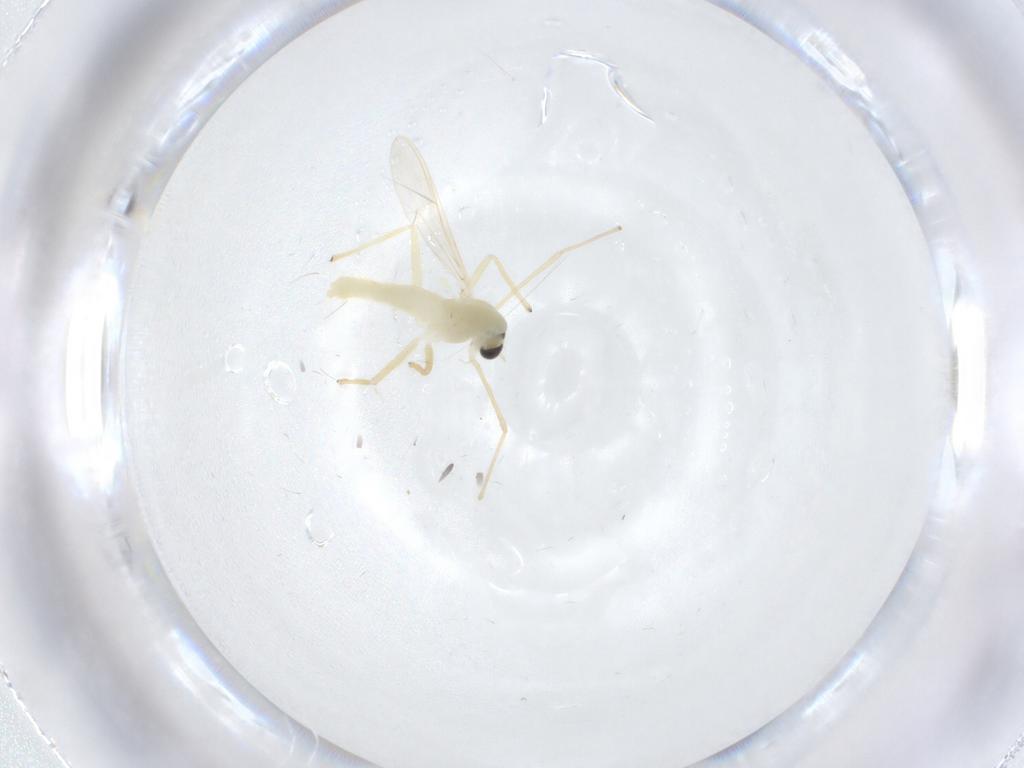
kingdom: Animalia
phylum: Arthropoda
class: Insecta
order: Diptera
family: Chironomidae
